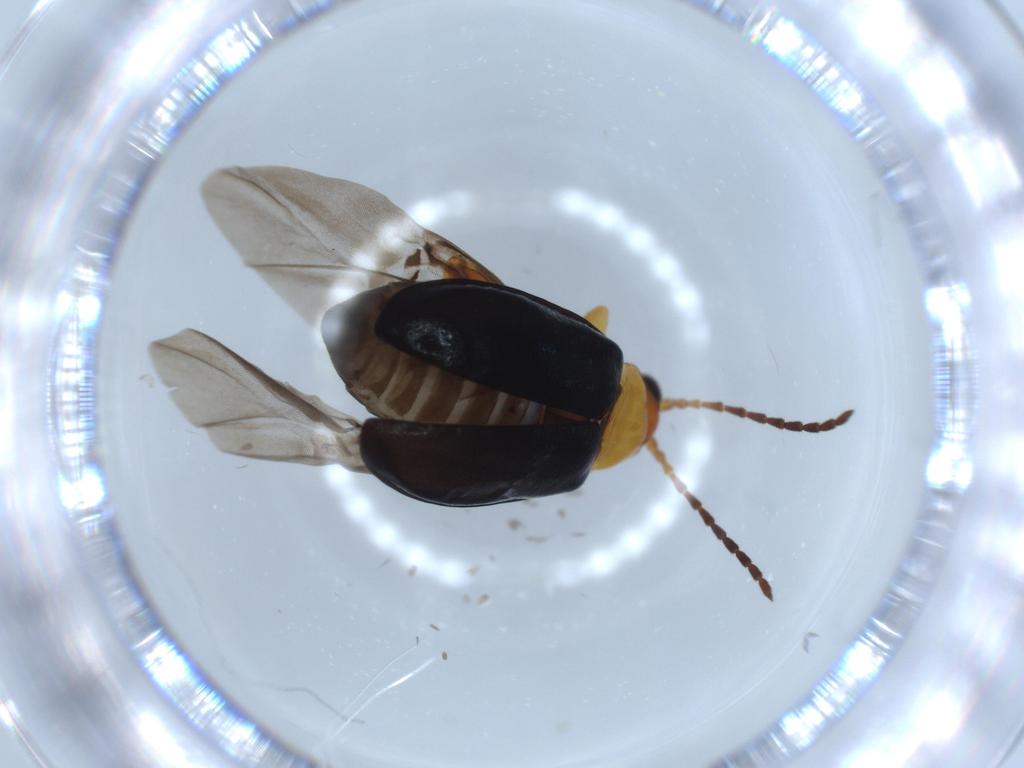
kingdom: Animalia
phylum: Arthropoda
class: Insecta
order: Coleoptera
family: Chrysomelidae
